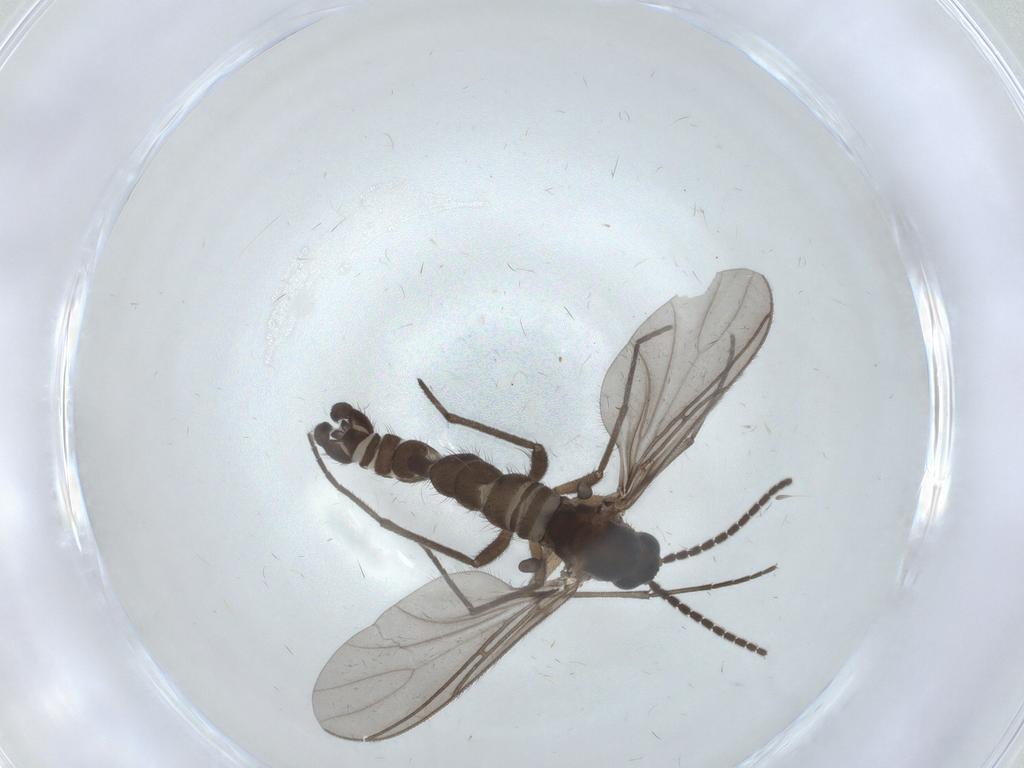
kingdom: Animalia
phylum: Arthropoda
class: Insecta
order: Diptera
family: Sciaridae
